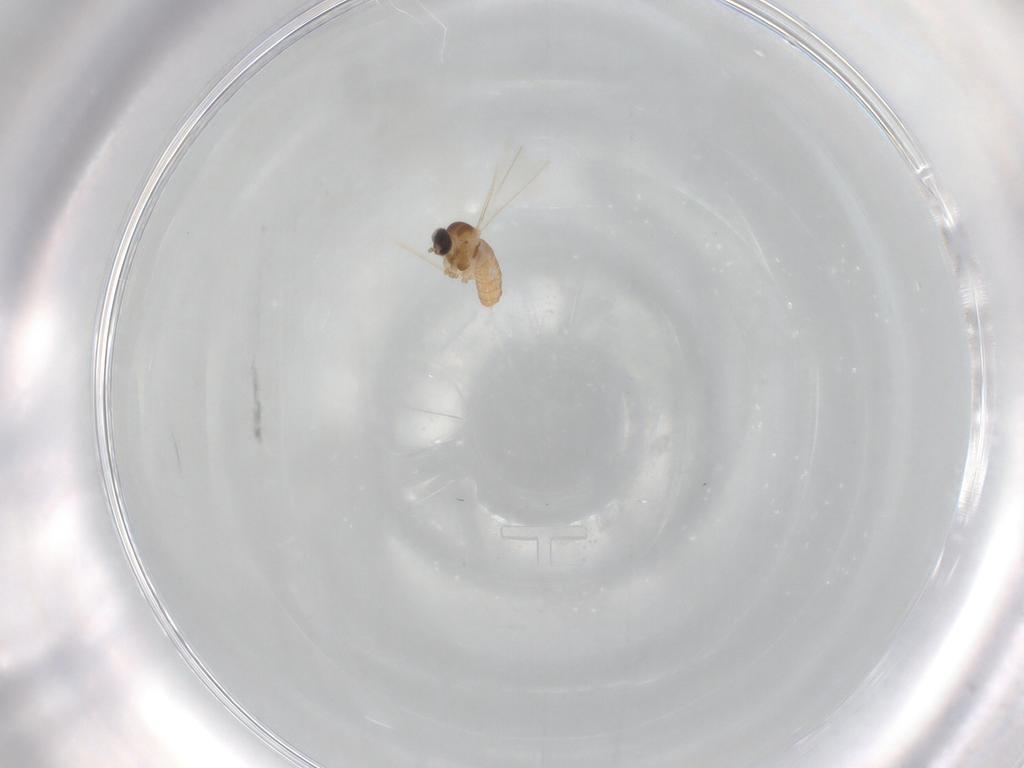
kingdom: Animalia
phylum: Arthropoda
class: Insecta
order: Diptera
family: Cecidomyiidae
